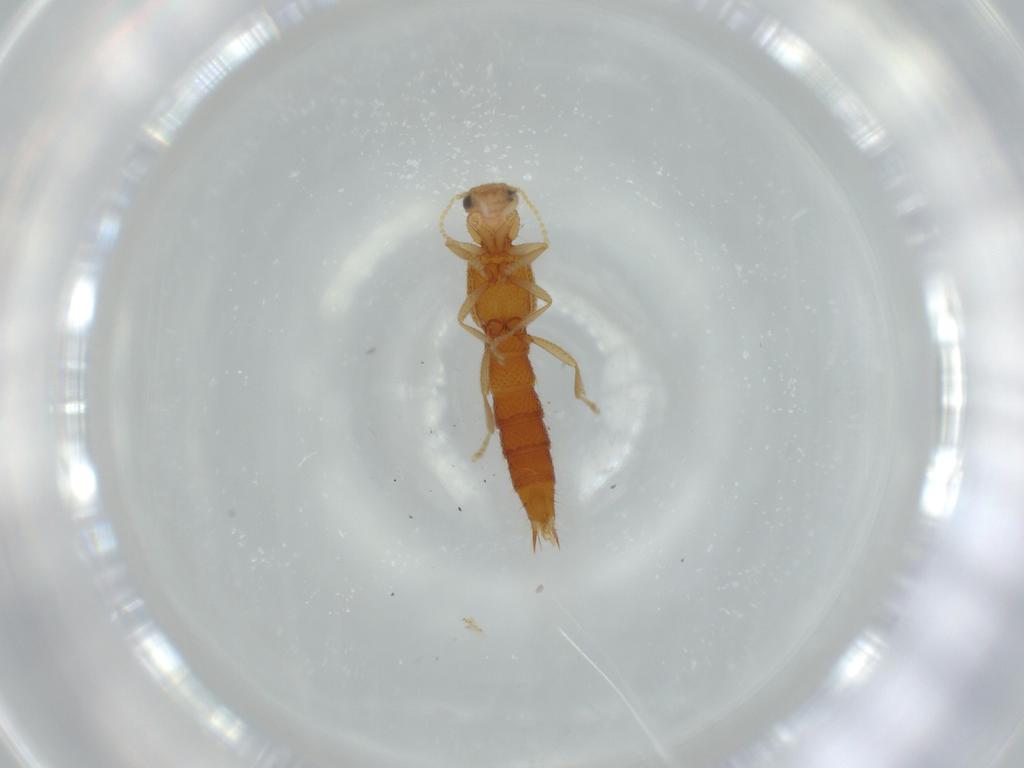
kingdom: Animalia
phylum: Arthropoda
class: Insecta
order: Coleoptera
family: Staphylinidae
